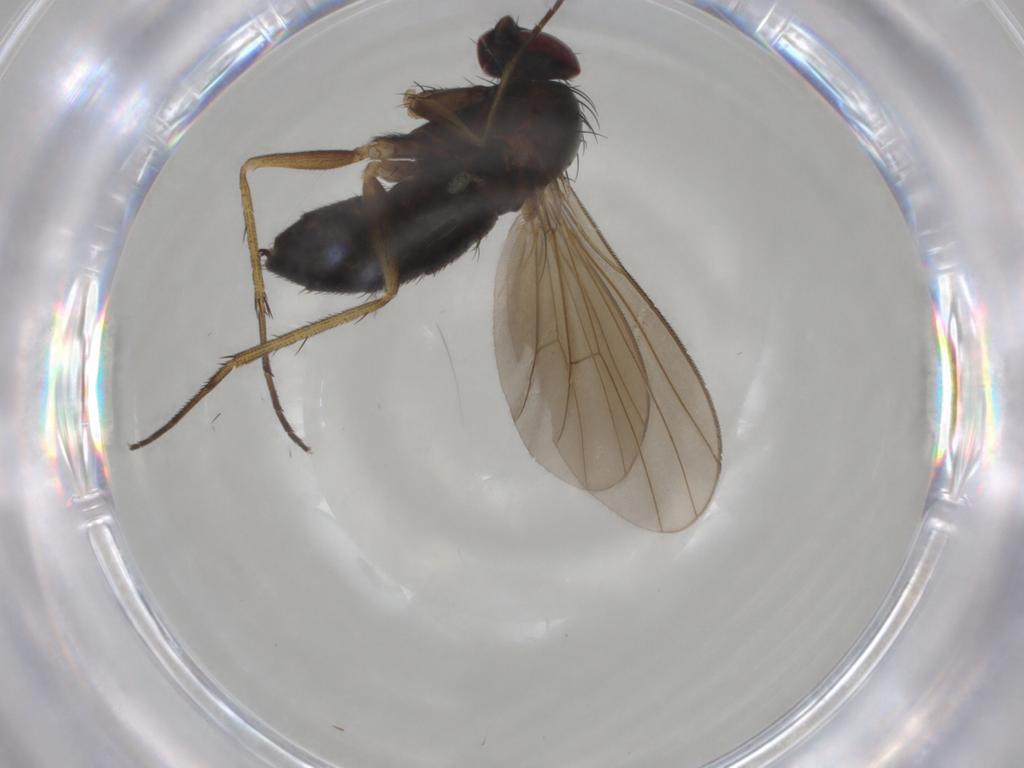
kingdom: Animalia
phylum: Arthropoda
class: Insecta
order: Diptera
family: Dolichopodidae
